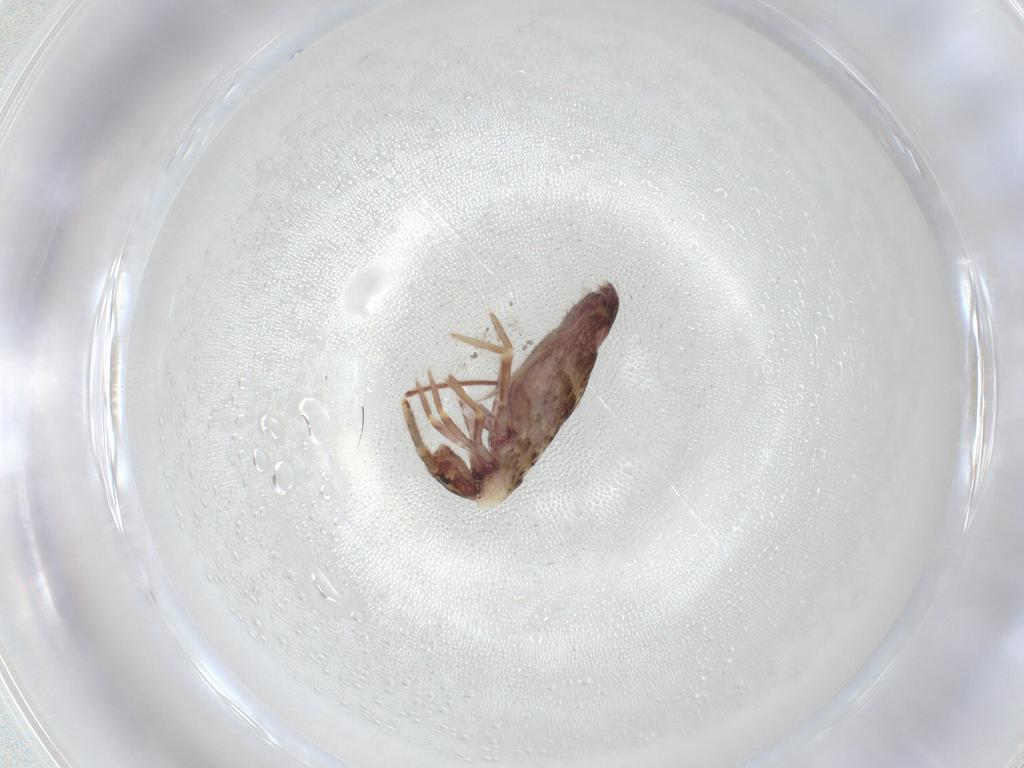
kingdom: Animalia
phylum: Arthropoda
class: Collembola
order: Entomobryomorpha
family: Entomobryidae
